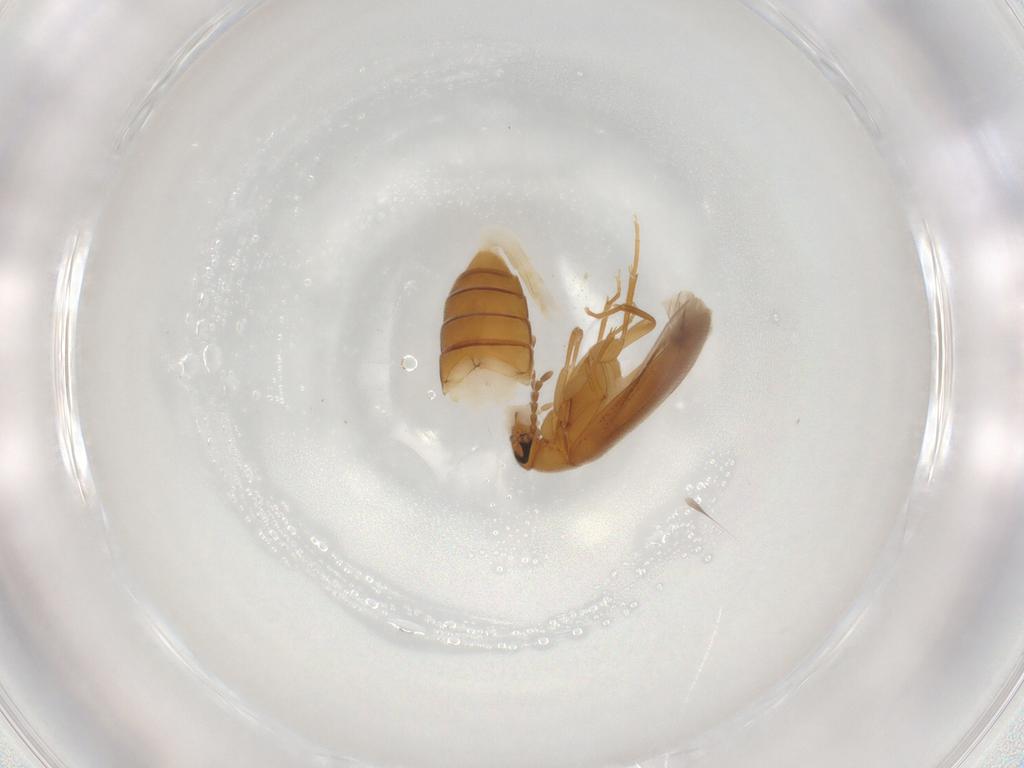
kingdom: Animalia
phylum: Arthropoda
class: Insecta
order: Coleoptera
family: Scraptiidae
